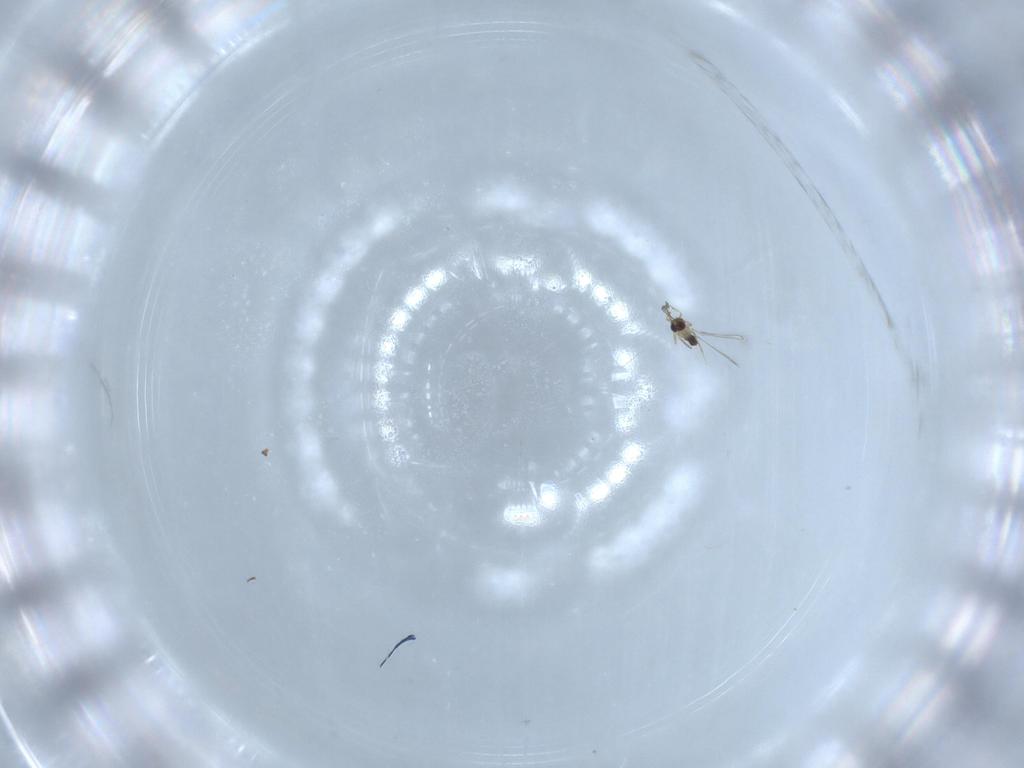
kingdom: Animalia
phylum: Arthropoda
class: Insecta
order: Hymenoptera
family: Mymaridae
